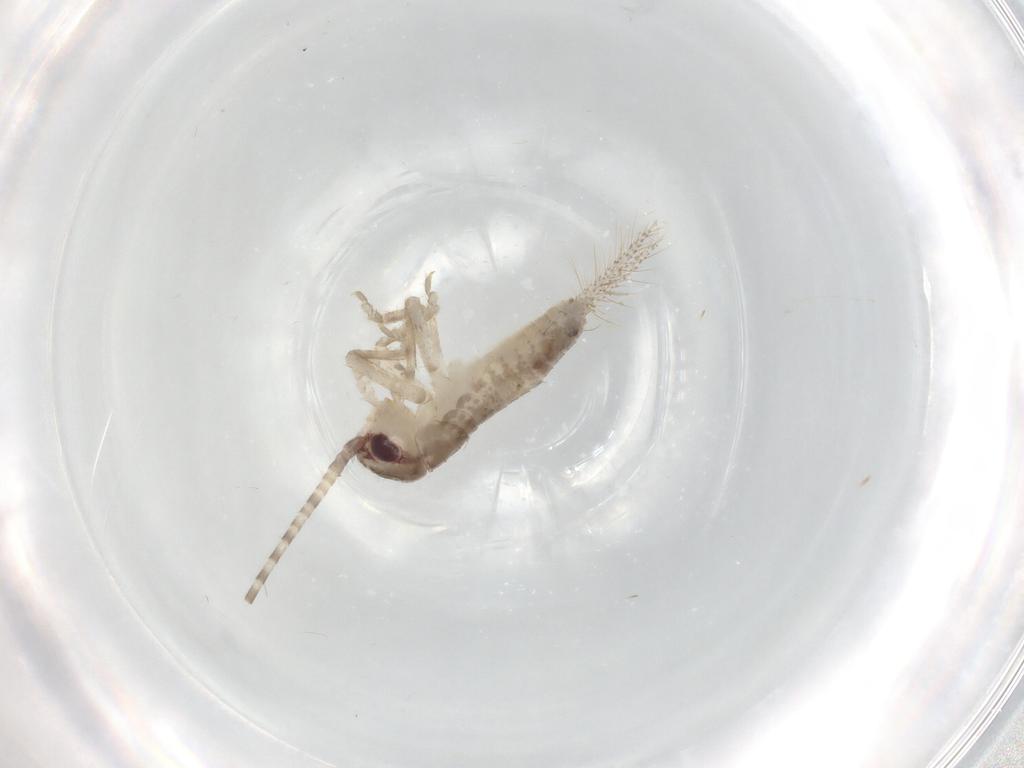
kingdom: Animalia
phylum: Arthropoda
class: Insecta
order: Orthoptera
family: Gryllidae
